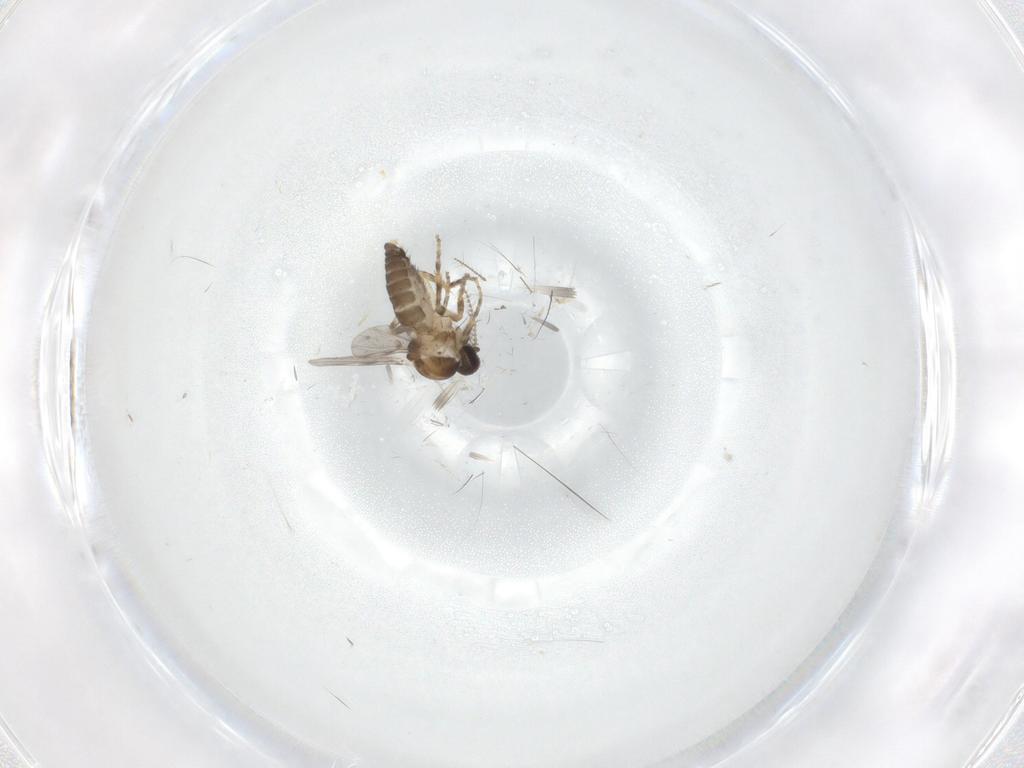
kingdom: Animalia
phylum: Arthropoda
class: Insecta
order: Diptera
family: Ceratopogonidae
